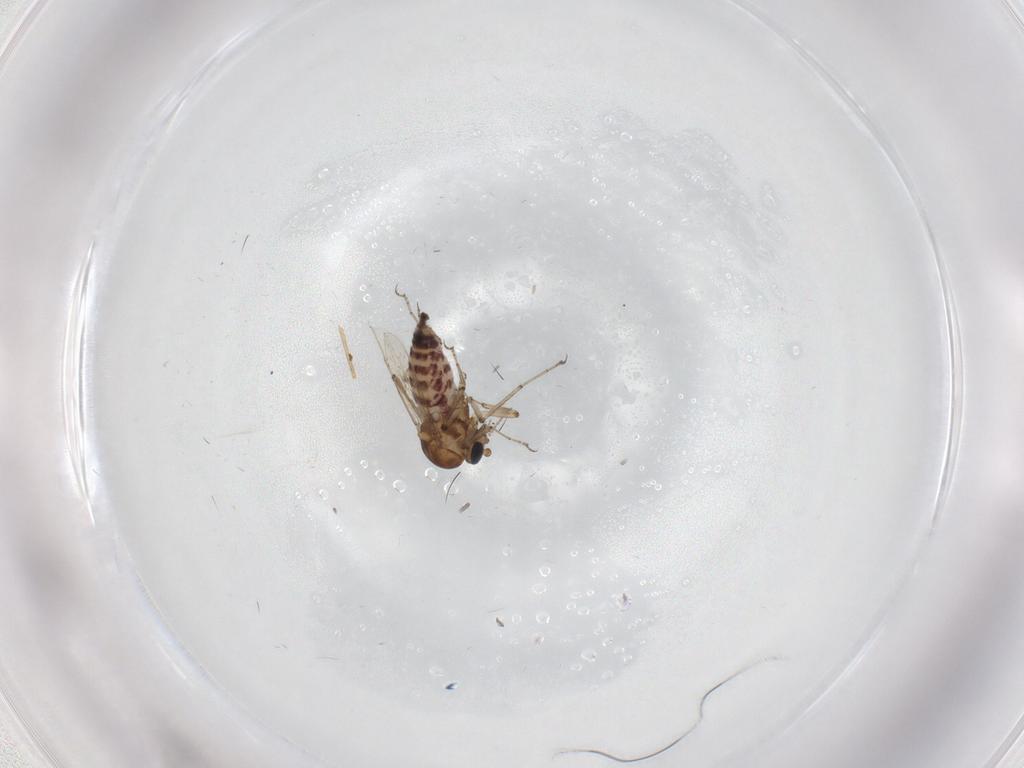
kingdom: Animalia
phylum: Arthropoda
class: Insecta
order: Diptera
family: Ceratopogonidae
